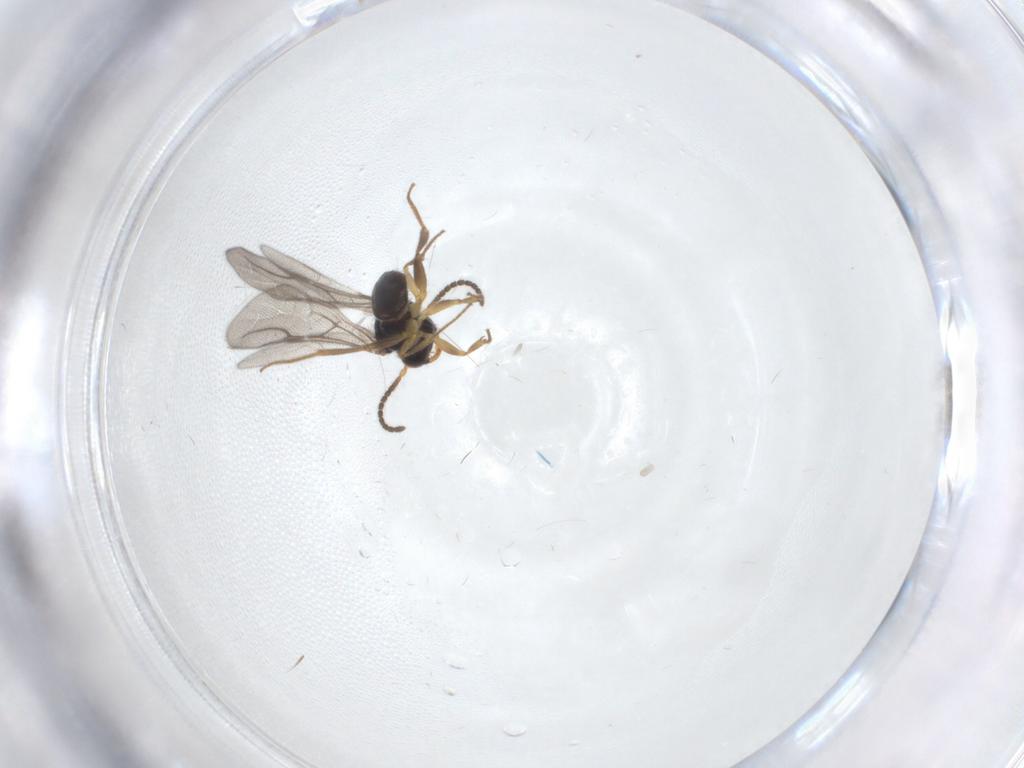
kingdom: Animalia
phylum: Arthropoda
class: Insecta
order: Hymenoptera
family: Bethylidae
